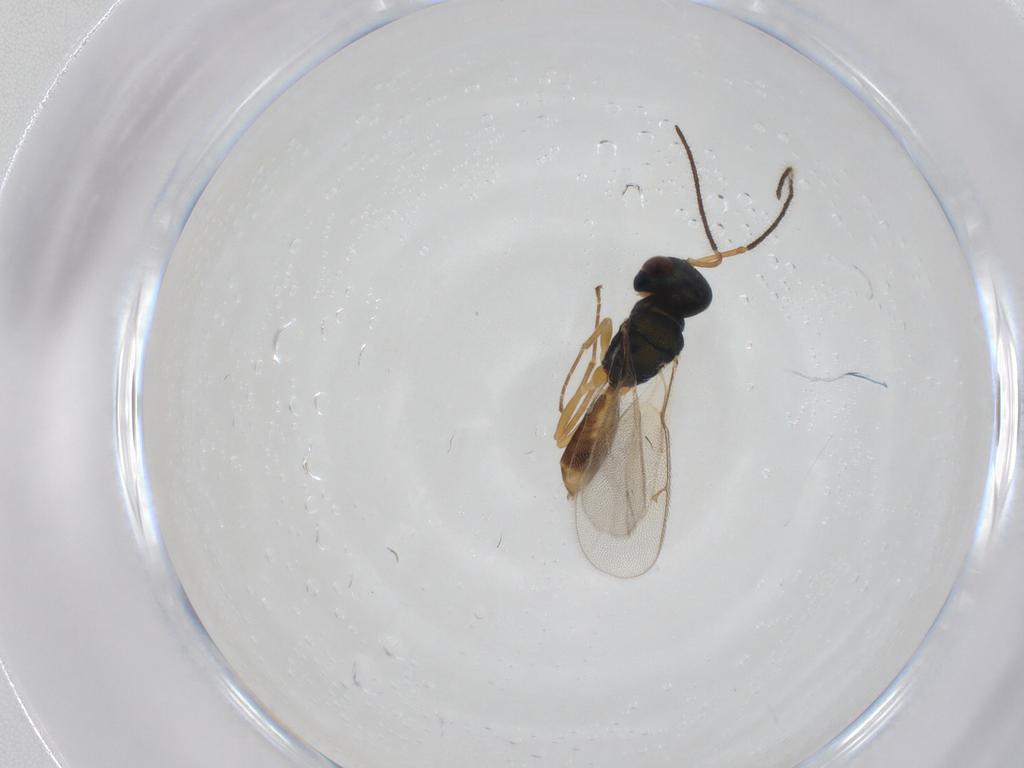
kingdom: Animalia
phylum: Arthropoda
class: Insecta
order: Hymenoptera
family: Pteromalidae
